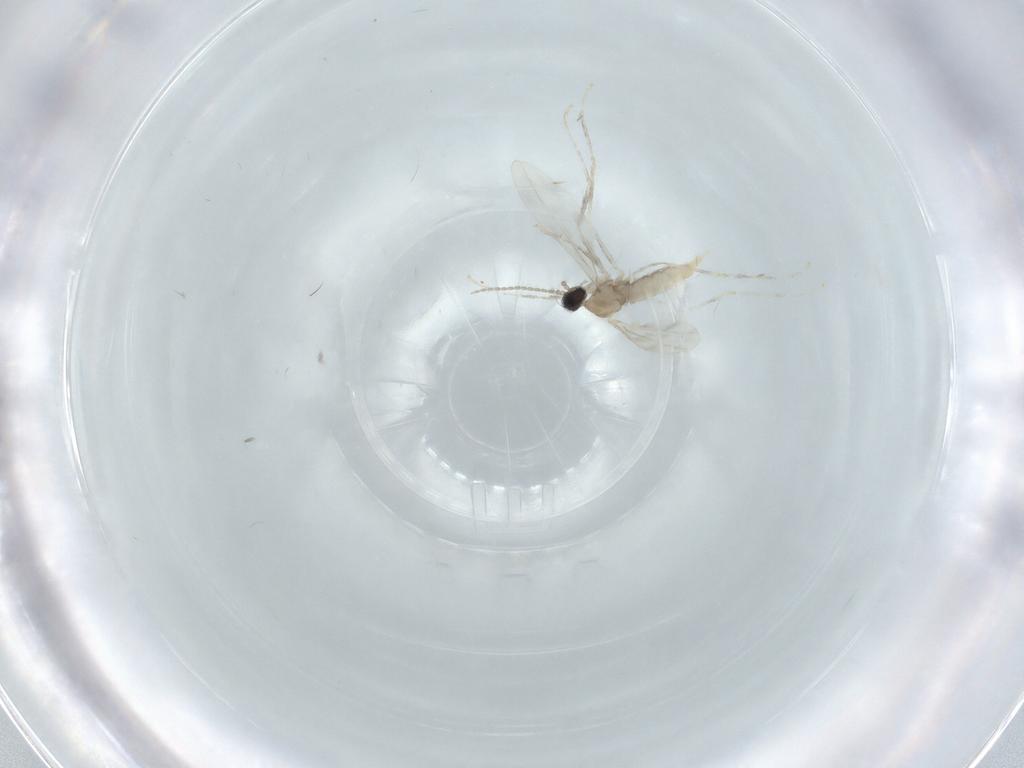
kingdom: Animalia
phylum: Arthropoda
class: Insecta
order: Diptera
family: Cecidomyiidae
